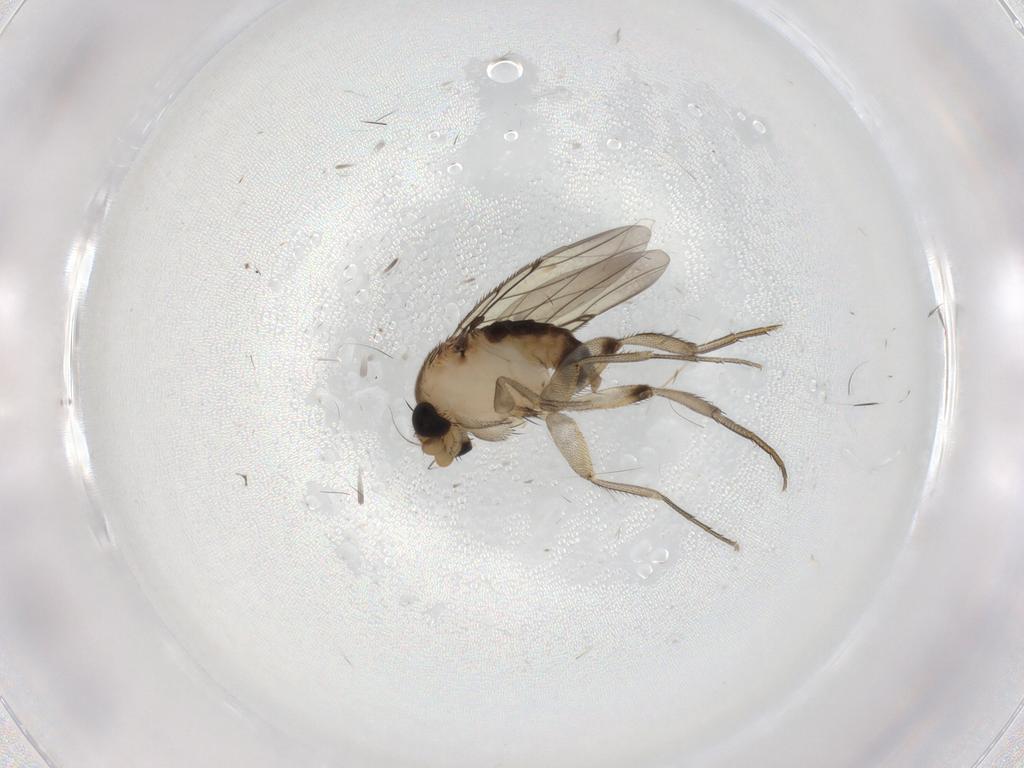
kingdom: Animalia
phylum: Arthropoda
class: Insecta
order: Diptera
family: Phoridae
